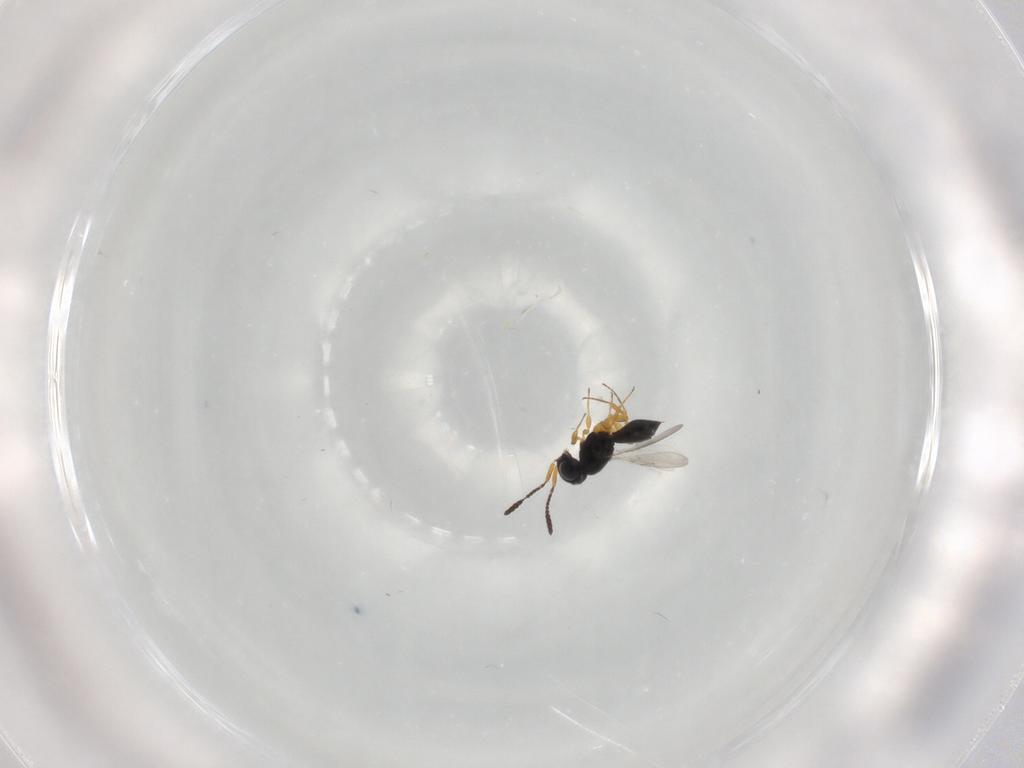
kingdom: Animalia
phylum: Arthropoda
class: Insecta
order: Hymenoptera
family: Scelionidae
